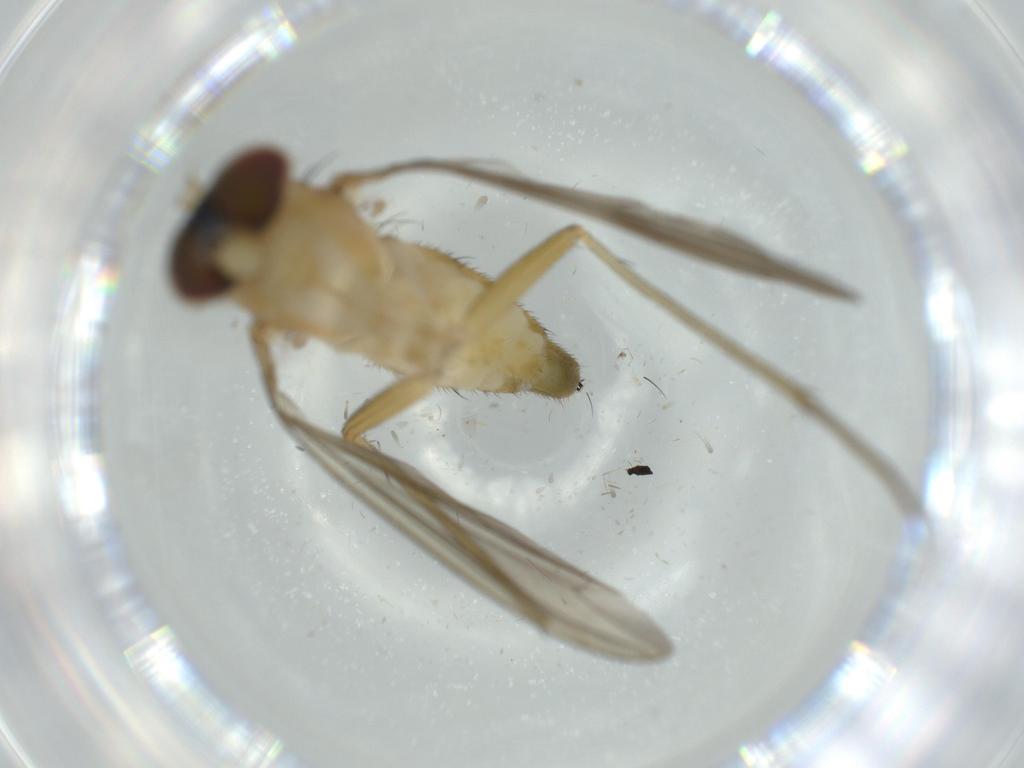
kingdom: Animalia
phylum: Arthropoda
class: Insecta
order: Diptera
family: Dolichopodidae
